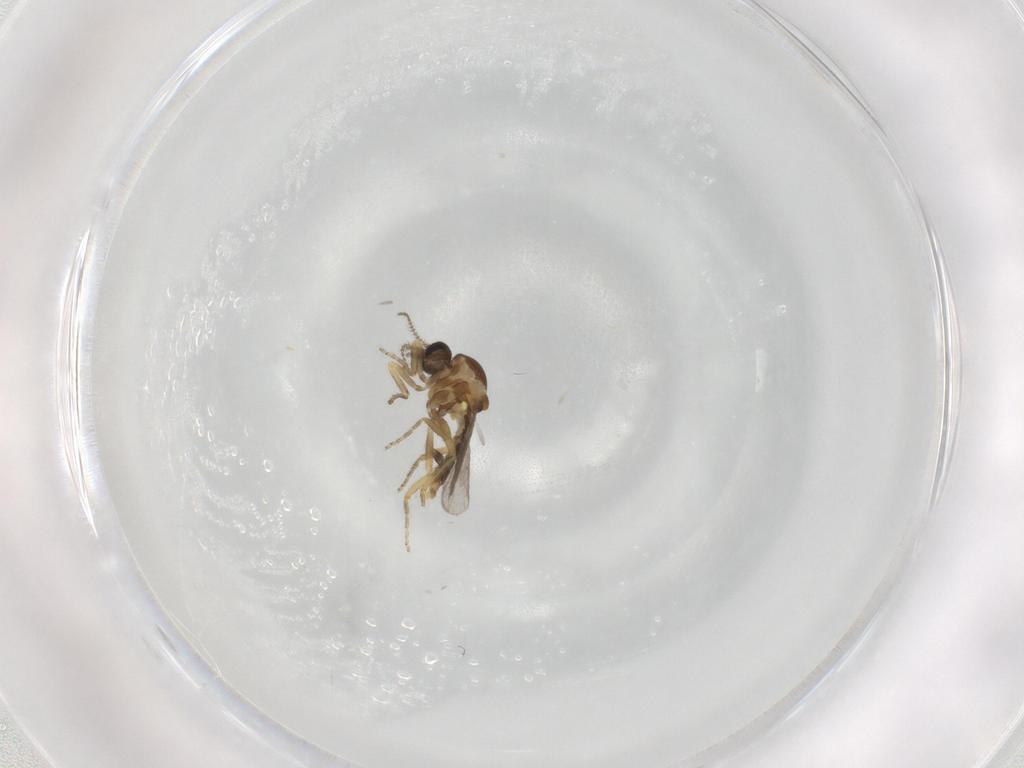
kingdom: Animalia
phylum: Arthropoda
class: Insecta
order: Diptera
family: Ceratopogonidae
